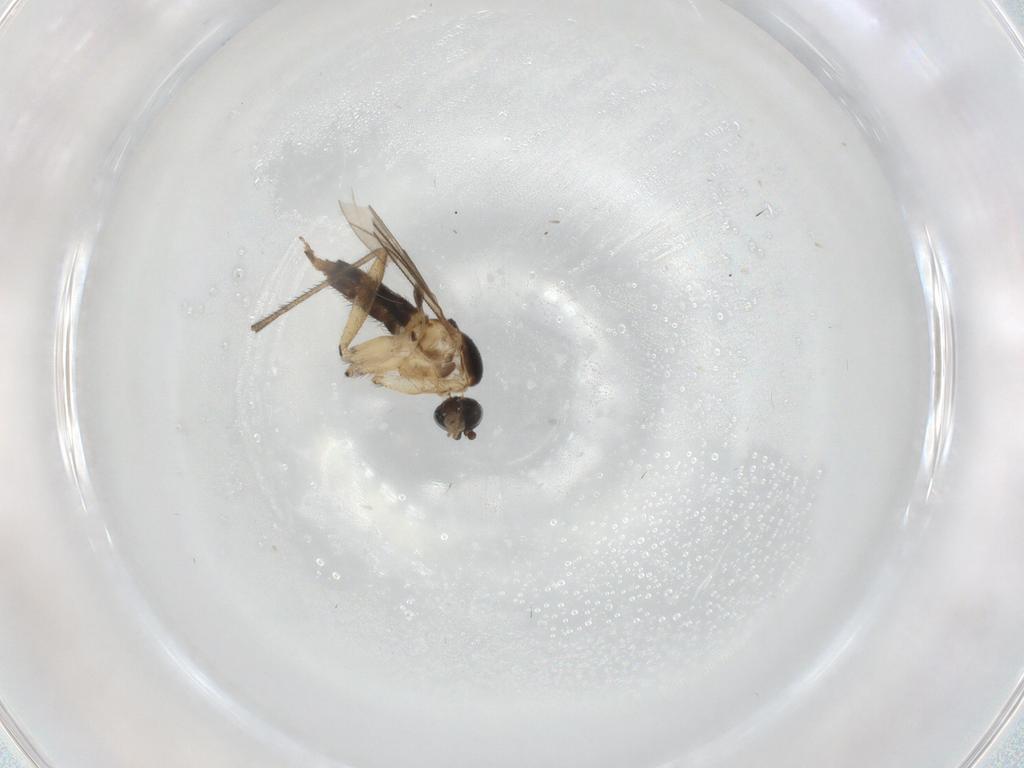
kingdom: Animalia
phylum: Arthropoda
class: Insecta
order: Diptera
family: Sciaridae
